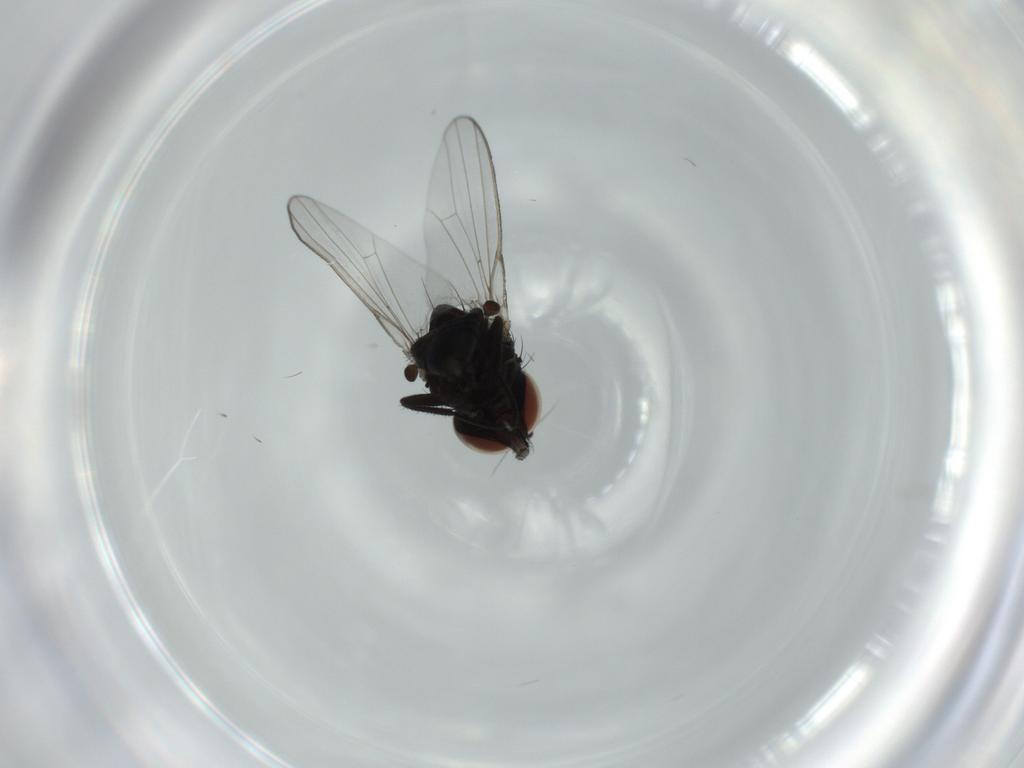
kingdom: Animalia
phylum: Arthropoda
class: Insecta
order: Diptera
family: Milichiidae
